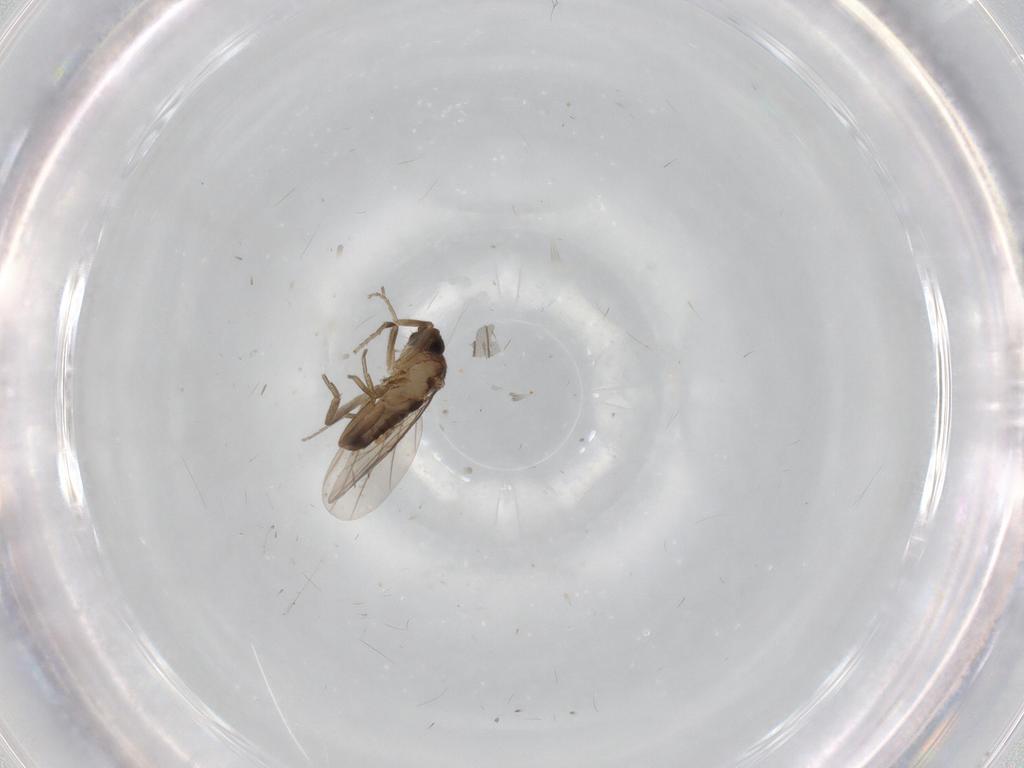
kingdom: Animalia
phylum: Arthropoda
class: Insecta
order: Diptera
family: Phoridae
